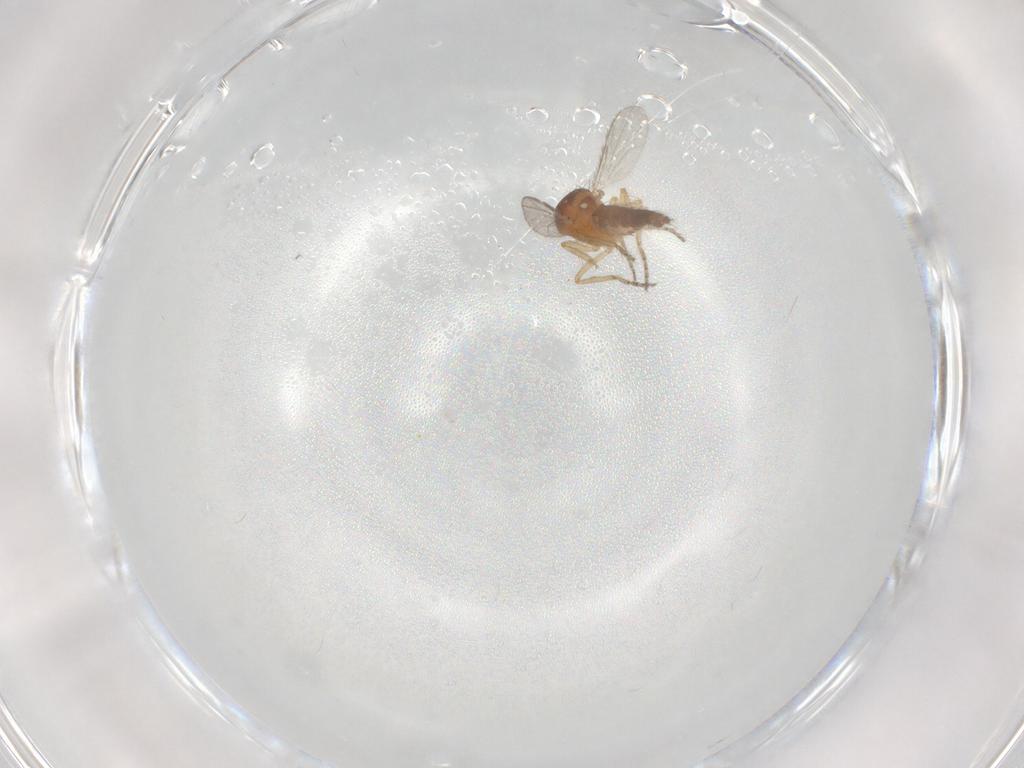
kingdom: Animalia
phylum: Arthropoda
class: Insecta
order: Diptera
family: Ceratopogonidae
